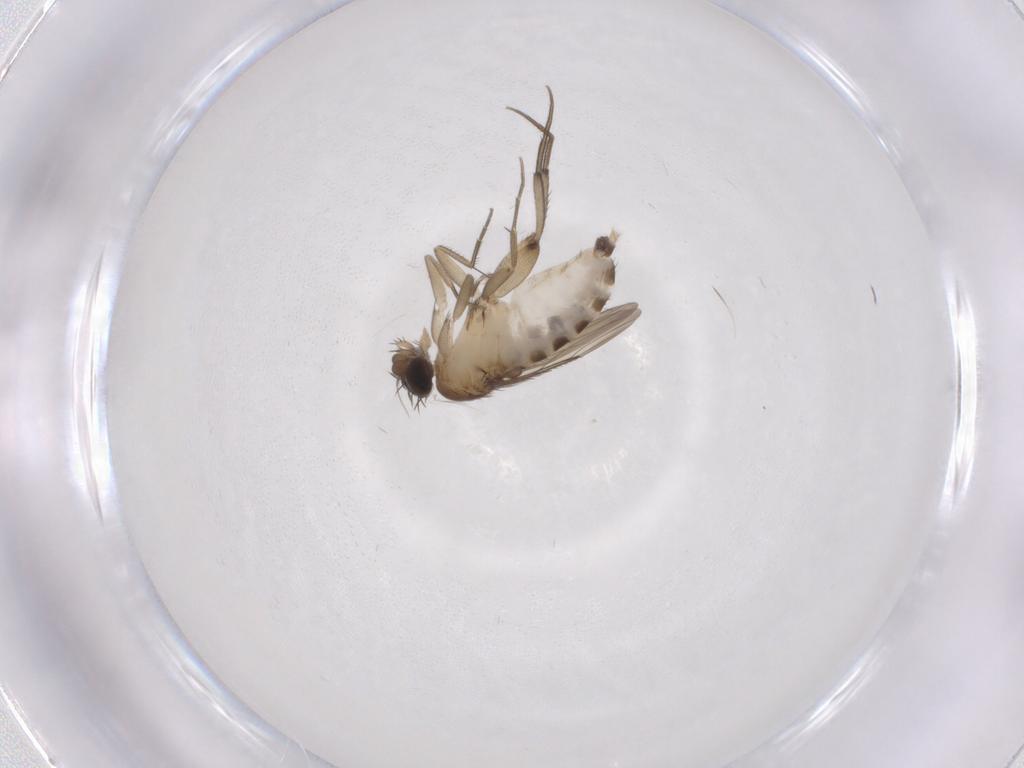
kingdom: Animalia
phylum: Arthropoda
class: Insecta
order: Diptera
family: Phoridae
